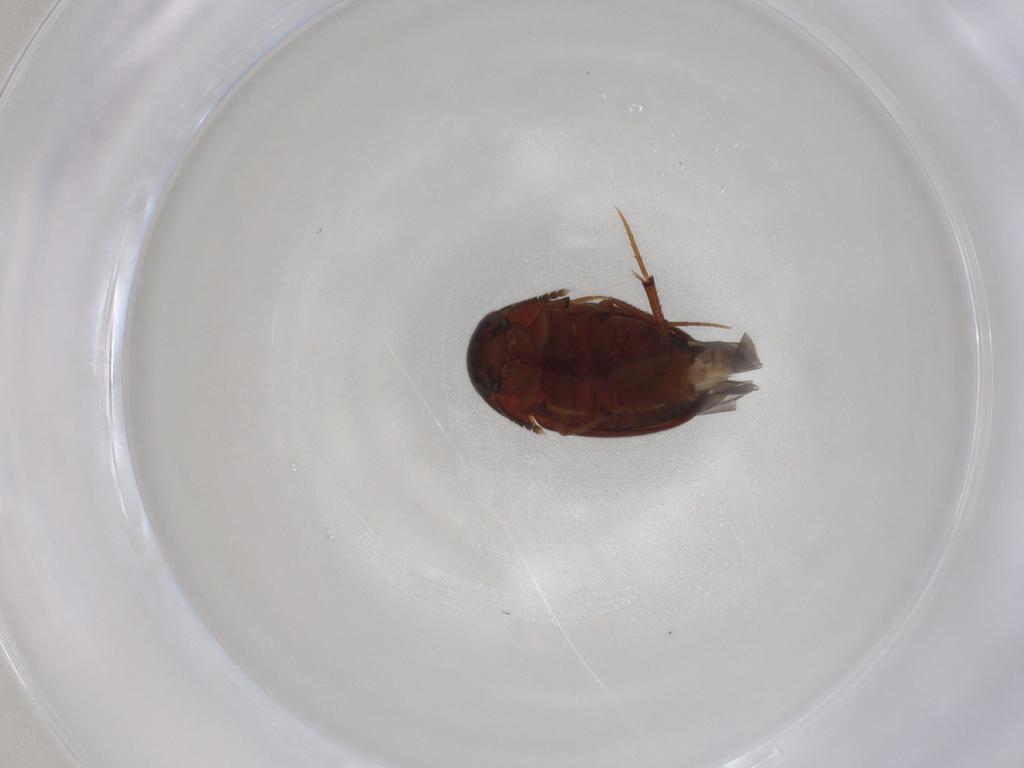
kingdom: Animalia
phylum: Arthropoda
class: Insecta
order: Coleoptera
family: Leiodidae
